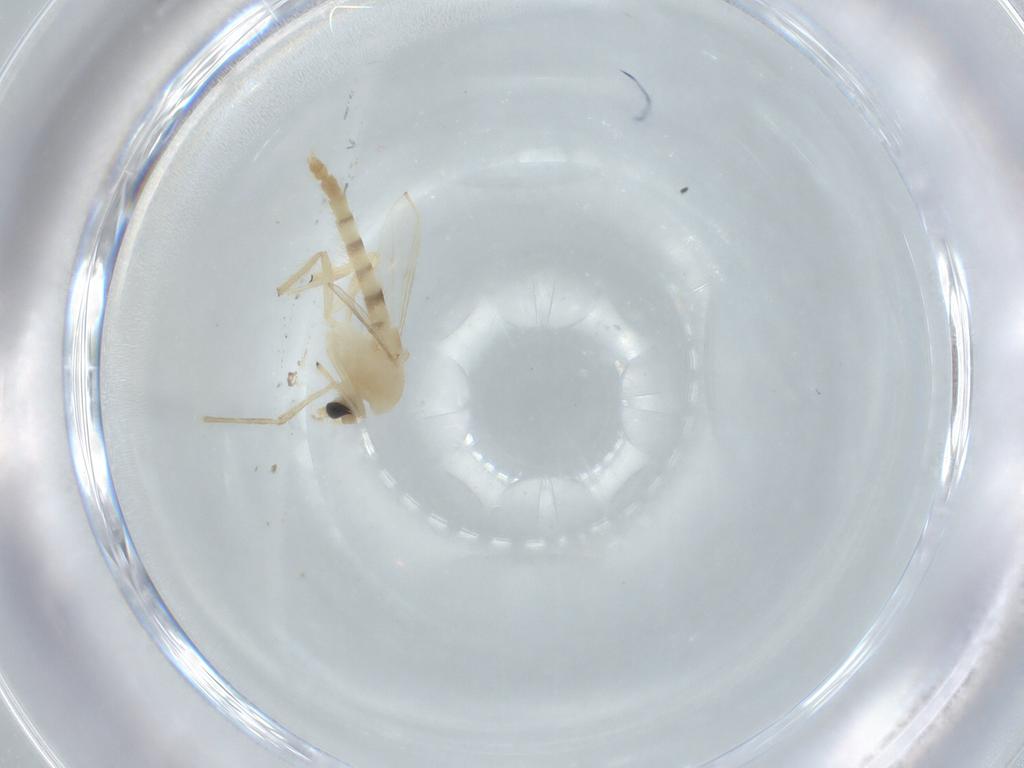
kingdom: Animalia
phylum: Arthropoda
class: Insecta
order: Diptera
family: Chironomidae
